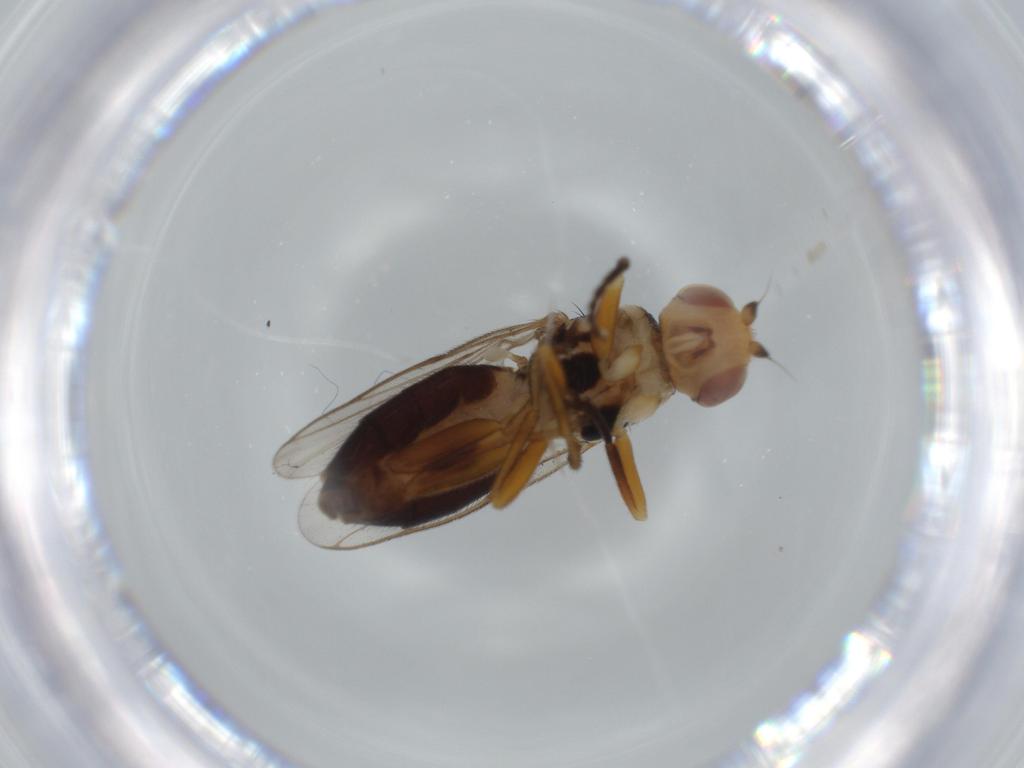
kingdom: Animalia
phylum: Arthropoda
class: Insecta
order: Diptera
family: Chloropidae
